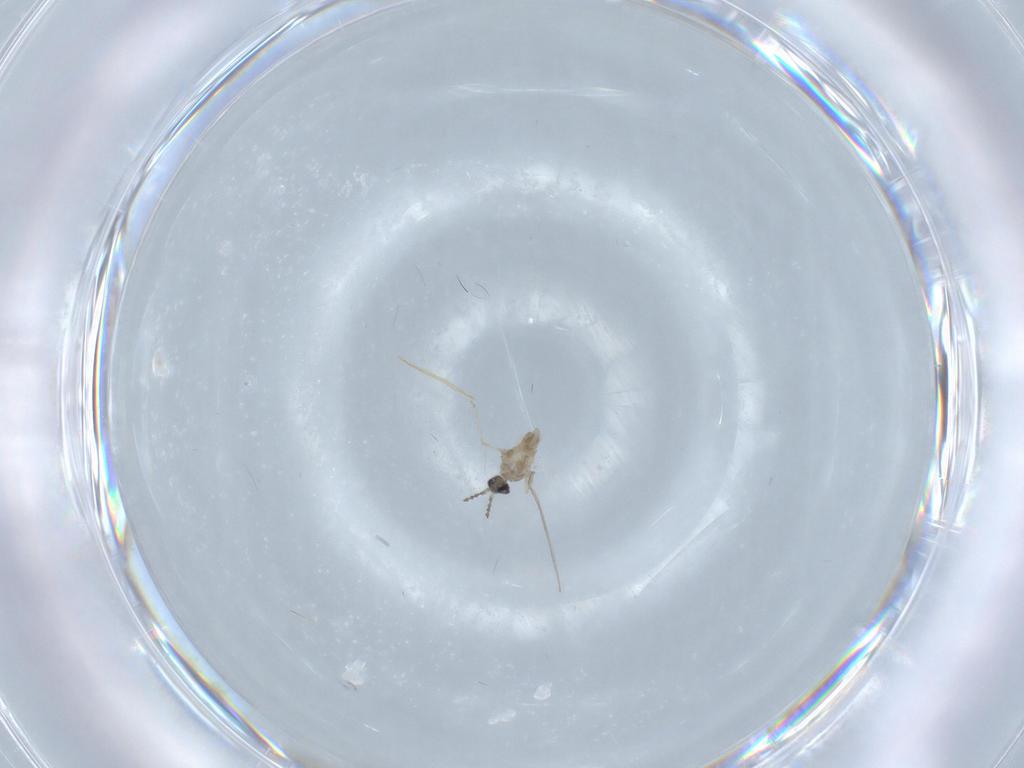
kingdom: Animalia
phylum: Arthropoda
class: Insecta
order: Diptera
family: Cecidomyiidae
